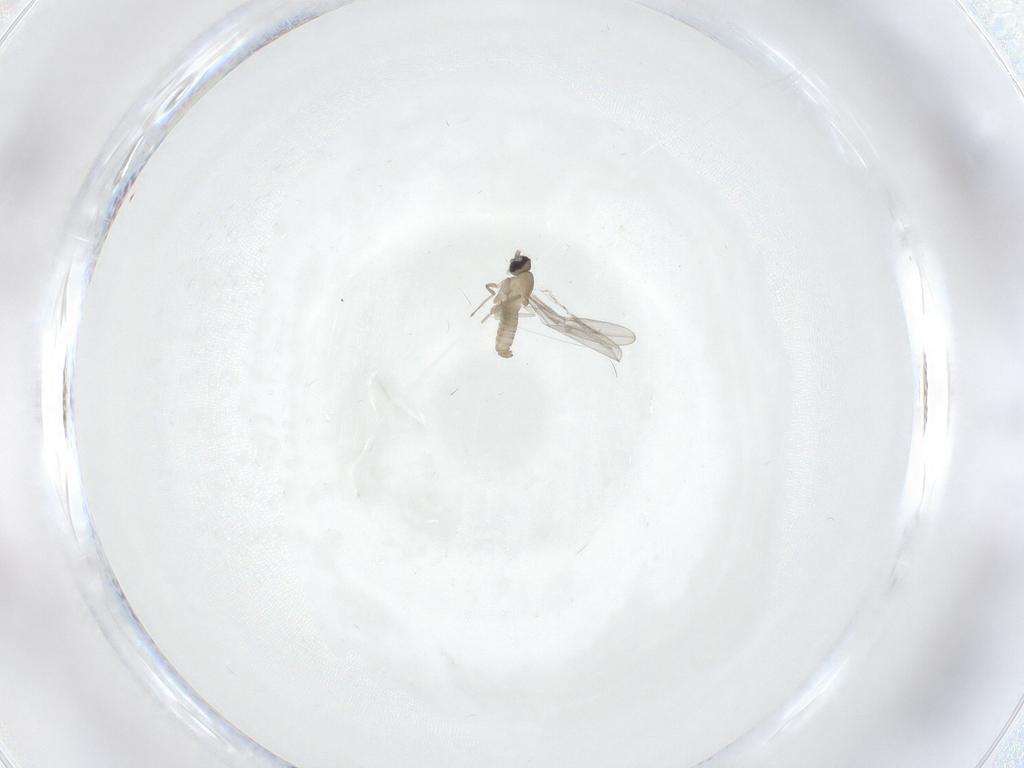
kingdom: Animalia
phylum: Arthropoda
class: Insecta
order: Diptera
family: Cecidomyiidae
